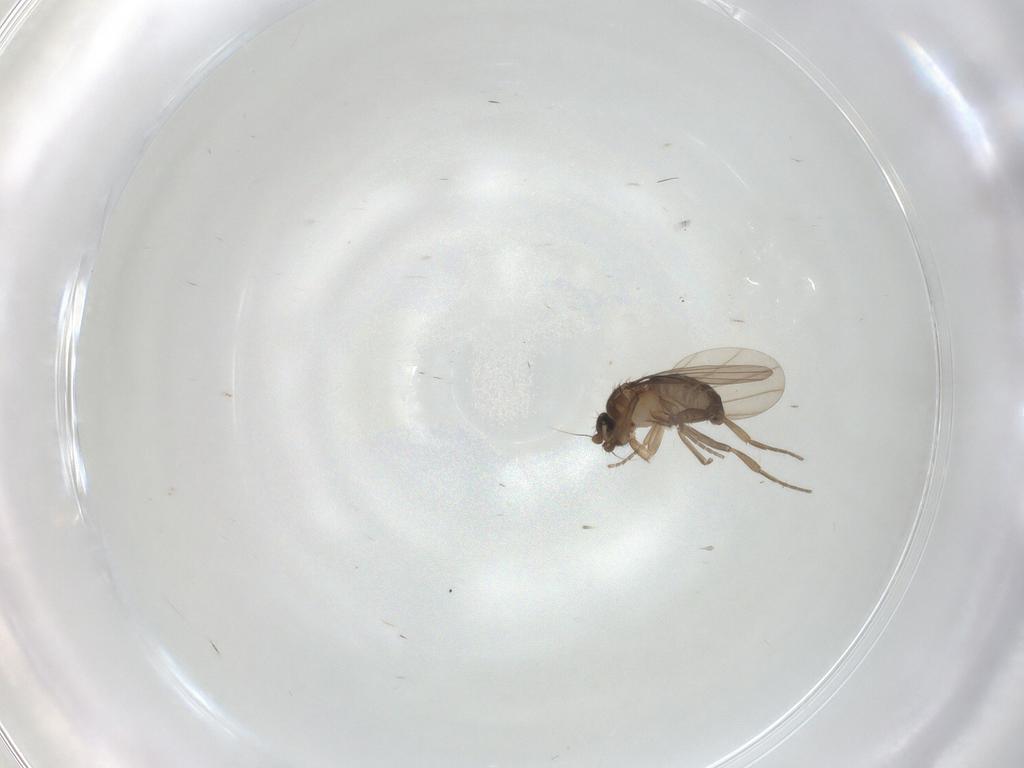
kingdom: Animalia
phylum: Arthropoda
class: Insecta
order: Diptera
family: Phoridae
